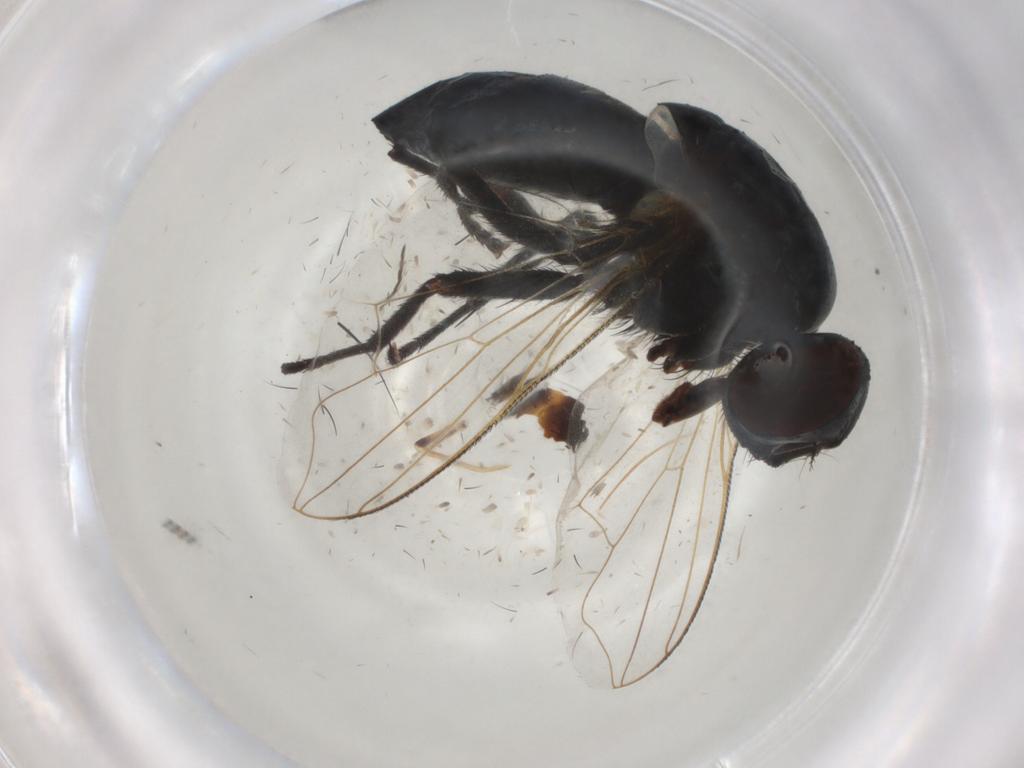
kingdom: Animalia
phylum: Arthropoda
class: Insecta
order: Diptera
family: Muscidae
